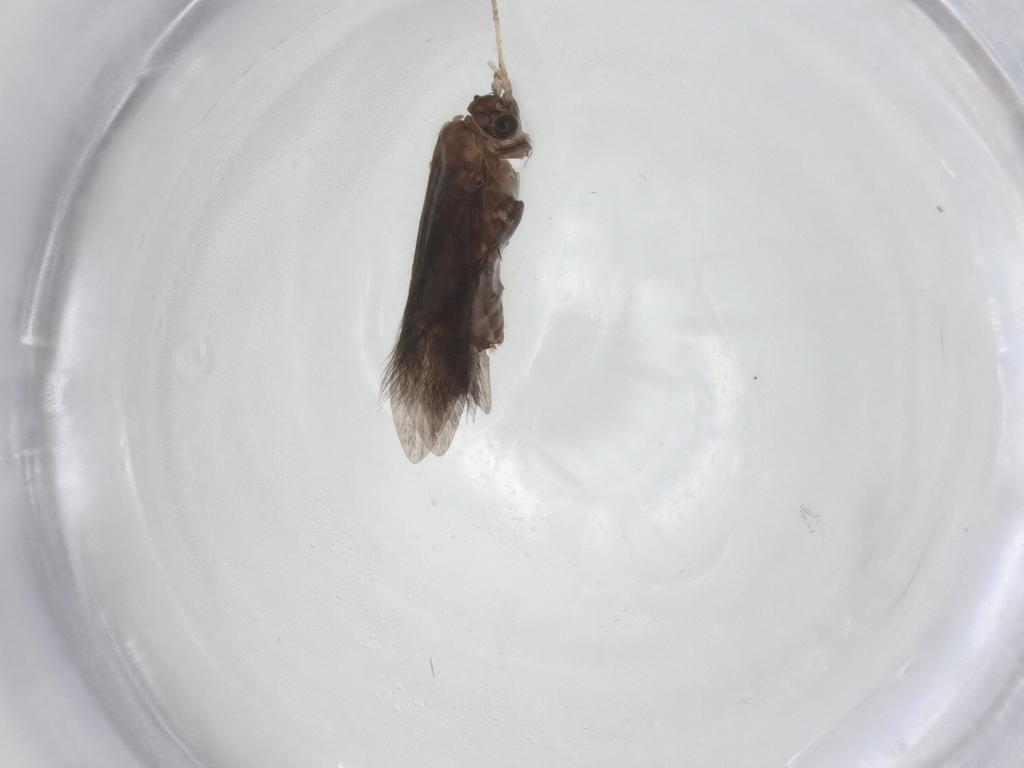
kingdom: Animalia
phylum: Arthropoda
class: Insecta
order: Trichoptera
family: Glossosomatidae
